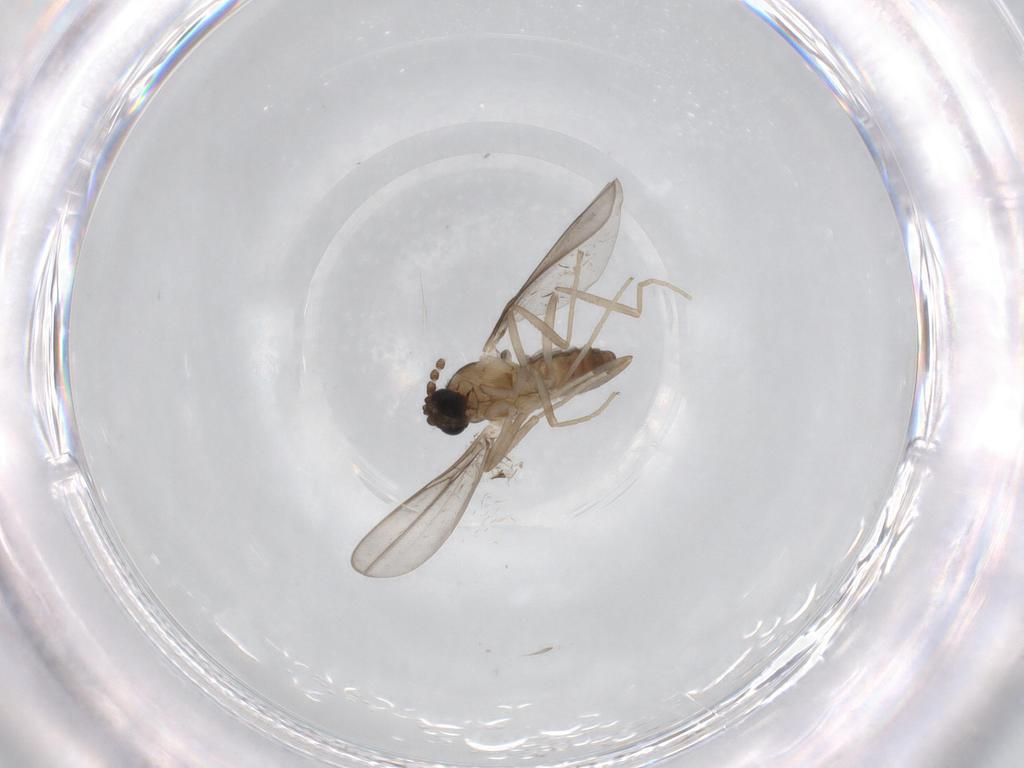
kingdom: Animalia
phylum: Arthropoda
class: Insecta
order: Diptera
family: Cecidomyiidae
